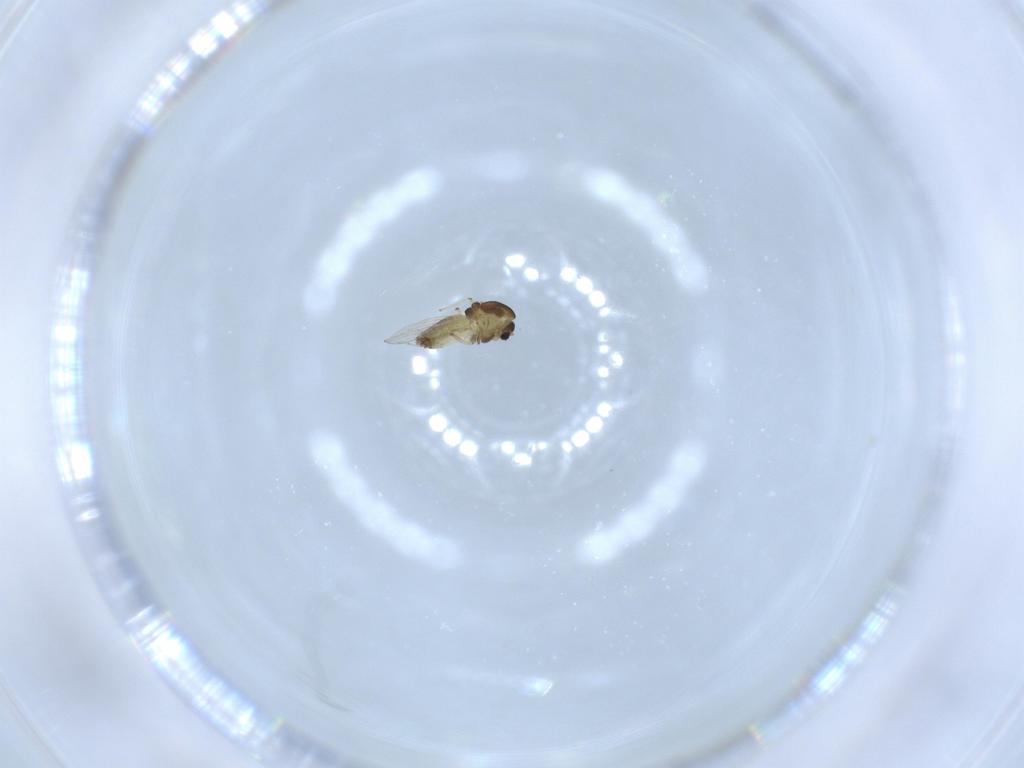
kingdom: Animalia
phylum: Arthropoda
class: Insecta
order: Diptera
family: Chironomidae
